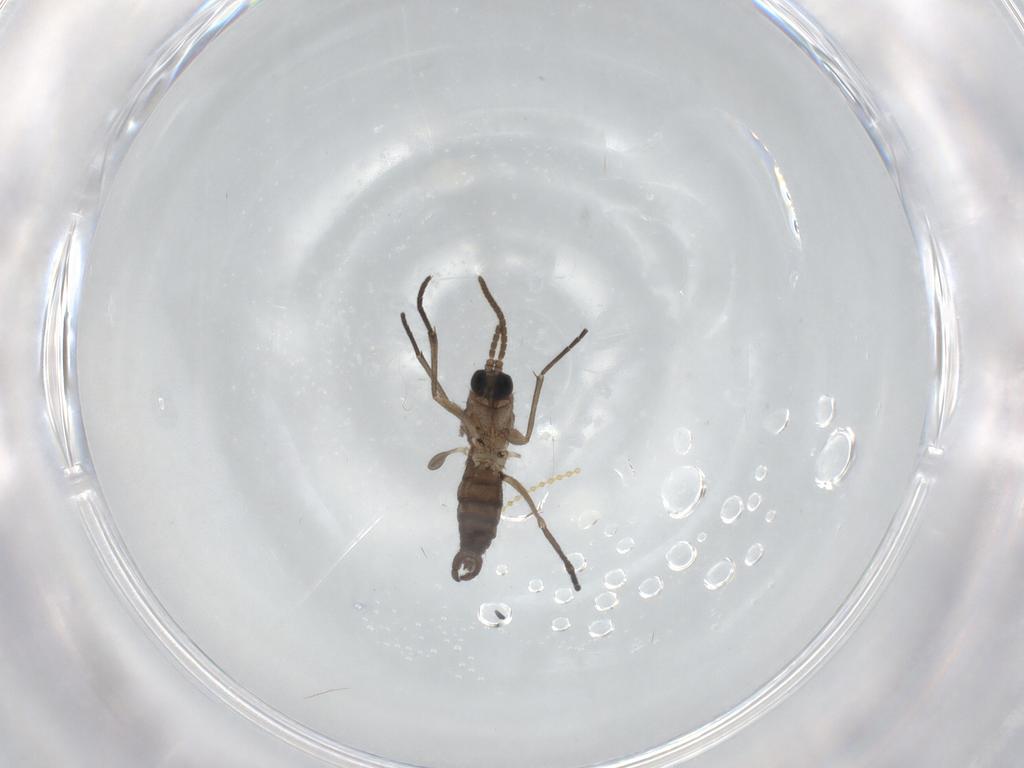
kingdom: Animalia
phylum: Arthropoda
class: Insecta
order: Diptera
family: Cecidomyiidae
